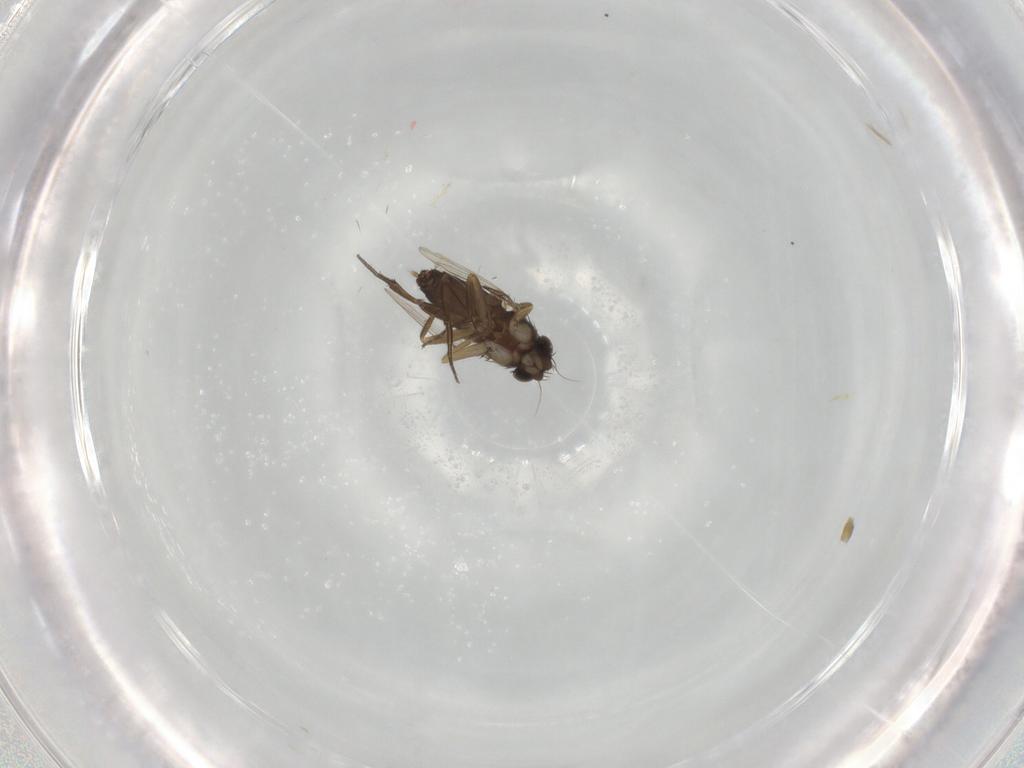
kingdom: Animalia
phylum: Arthropoda
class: Insecta
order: Diptera
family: Phoridae
